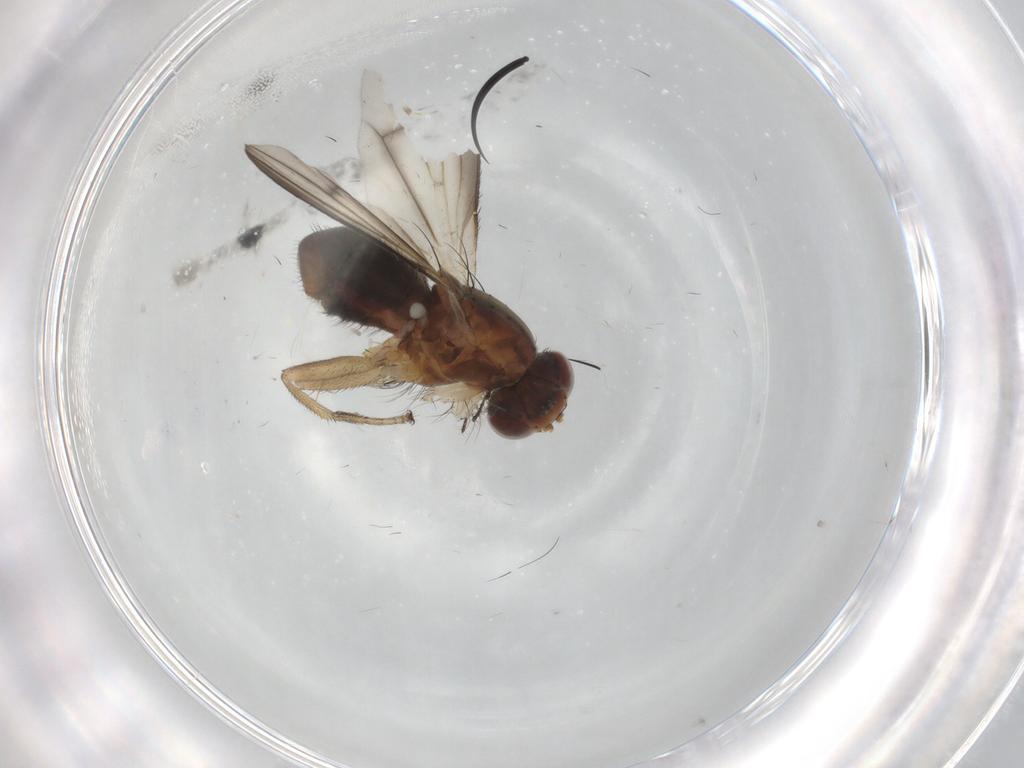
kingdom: Animalia
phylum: Arthropoda
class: Insecta
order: Diptera
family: Heleomyzidae
